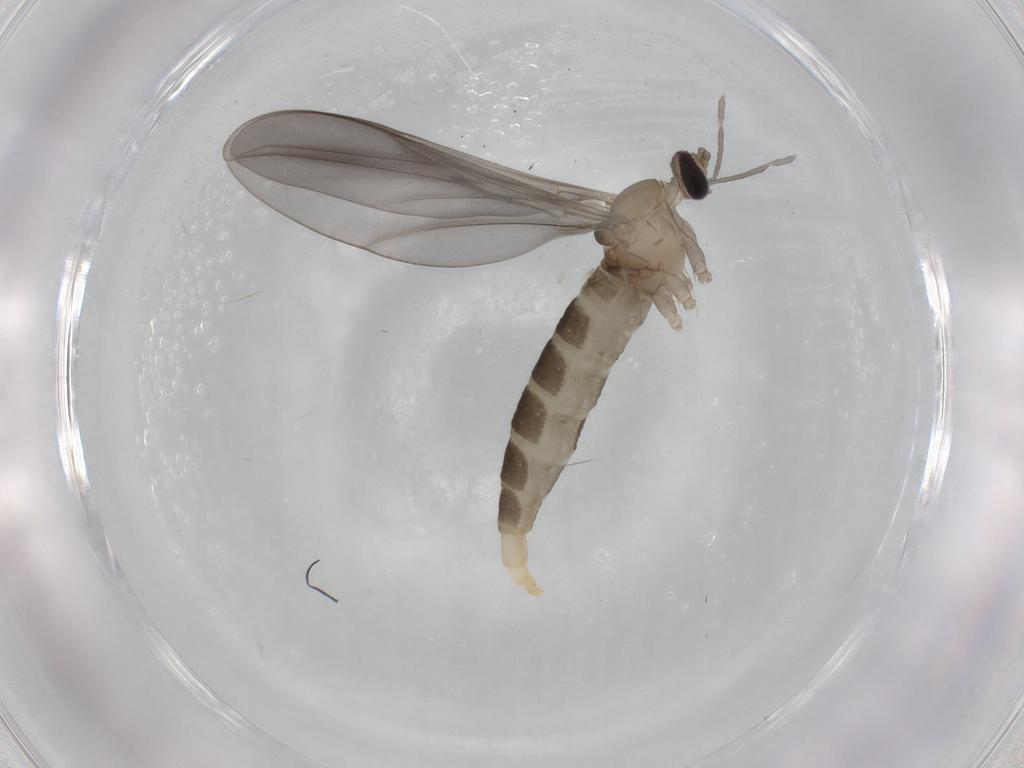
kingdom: Animalia
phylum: Arthropoda
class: Insecta
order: Diptera
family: Cecidomyiidae
